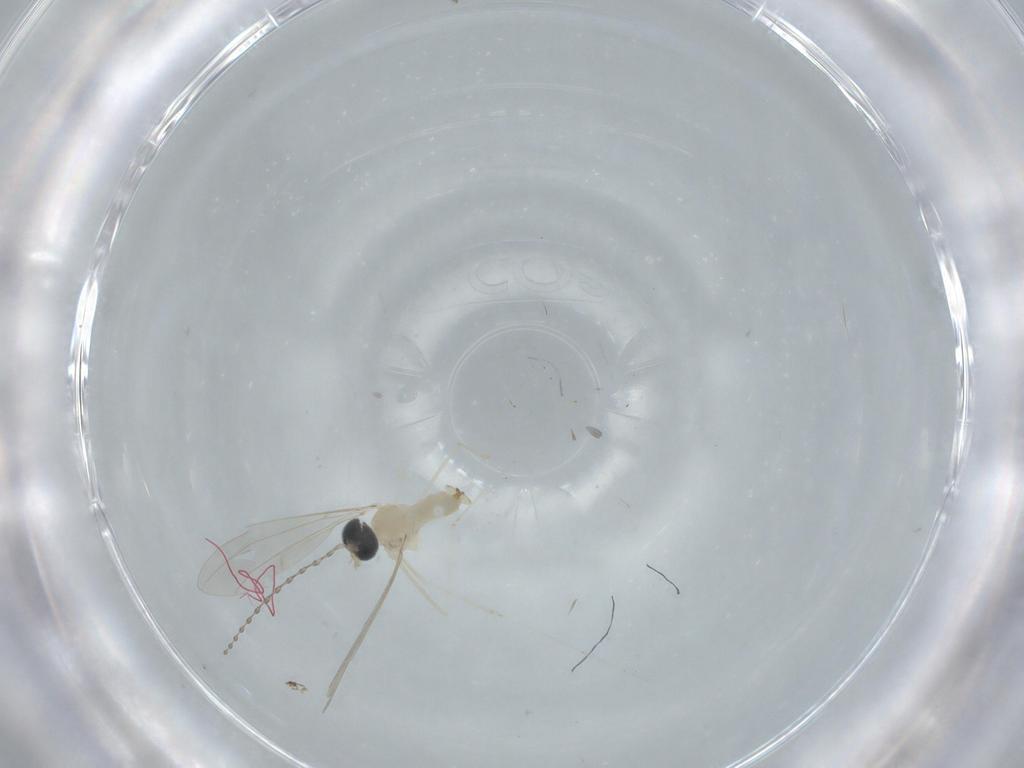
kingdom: Animalia
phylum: Arthropoda
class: Insecta
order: Diptera
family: Cecidomyiidae
